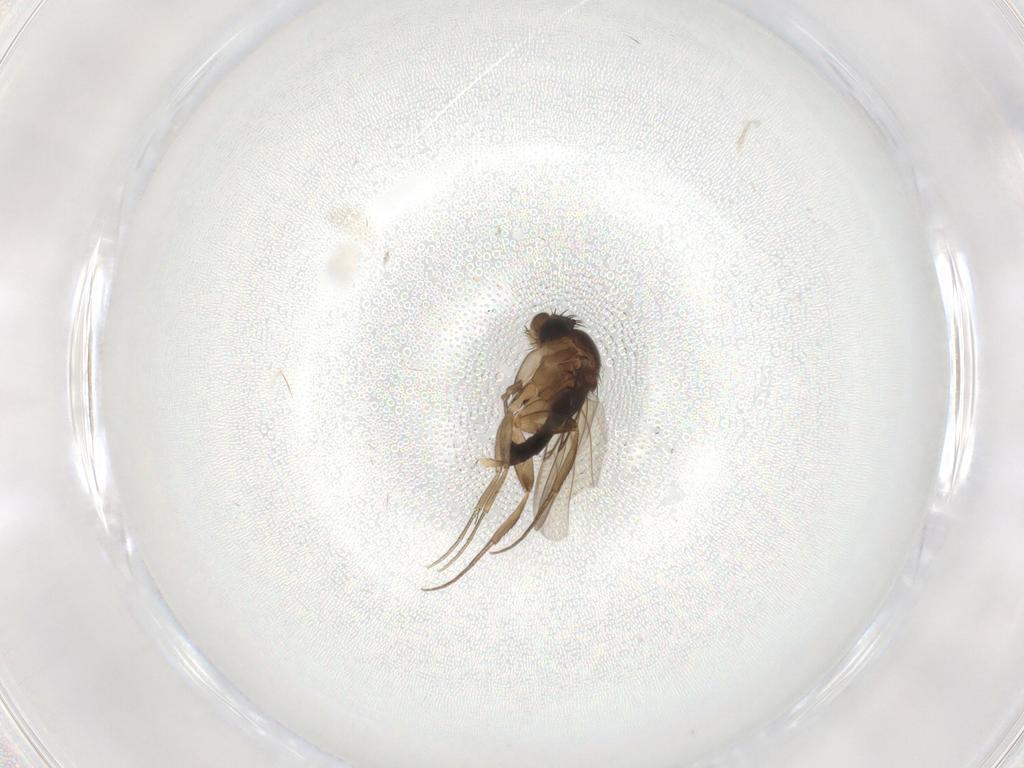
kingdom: Animalia
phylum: Arthropoda
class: Insecta
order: Diptera
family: Phoridae
